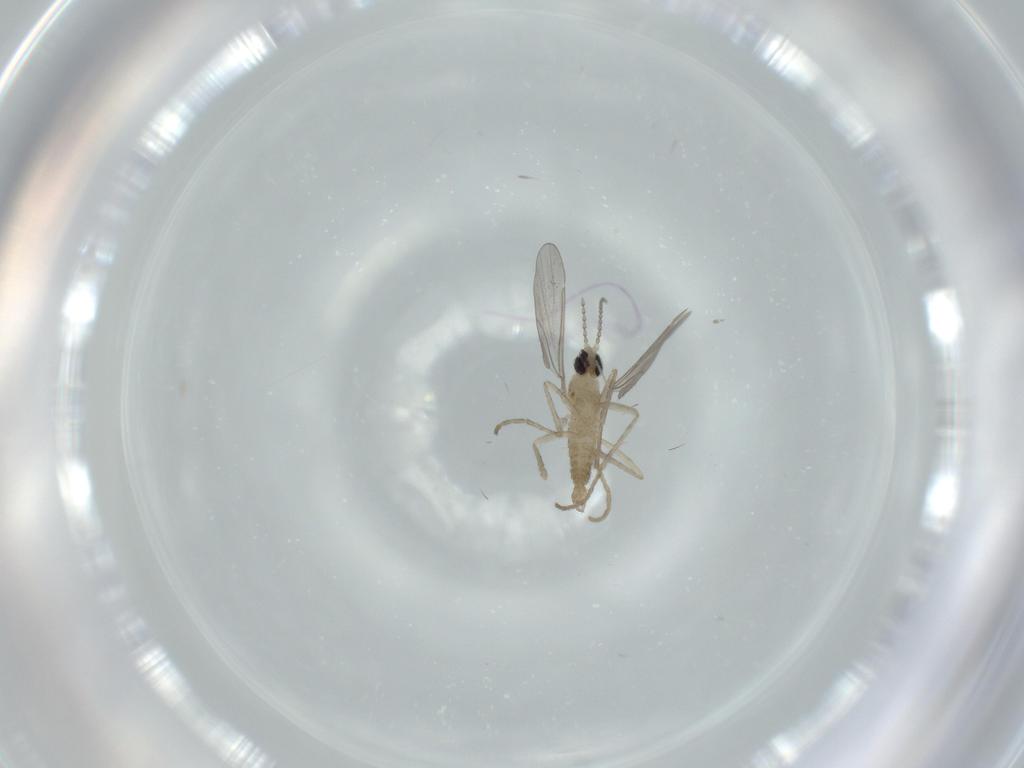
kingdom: Animalia
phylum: Arthropoda
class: Insecta
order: Diptera
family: Cecidomyiidae
